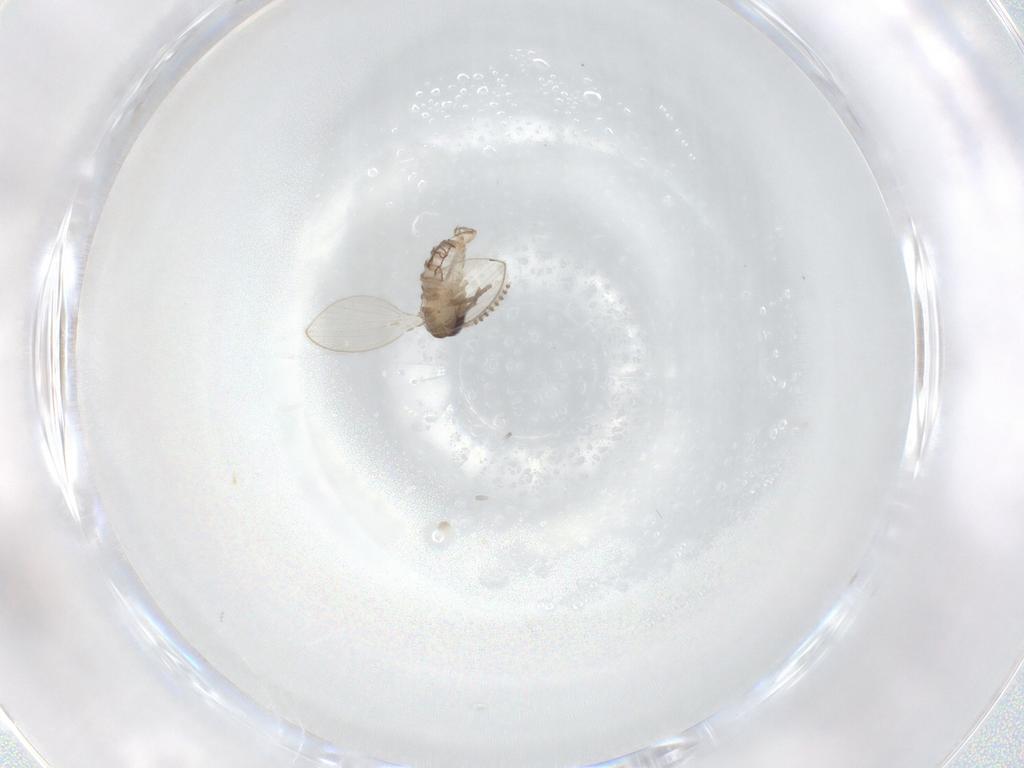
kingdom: Animalia
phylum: Arthropoda
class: Insecta
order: Diptera
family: Psychodidae
